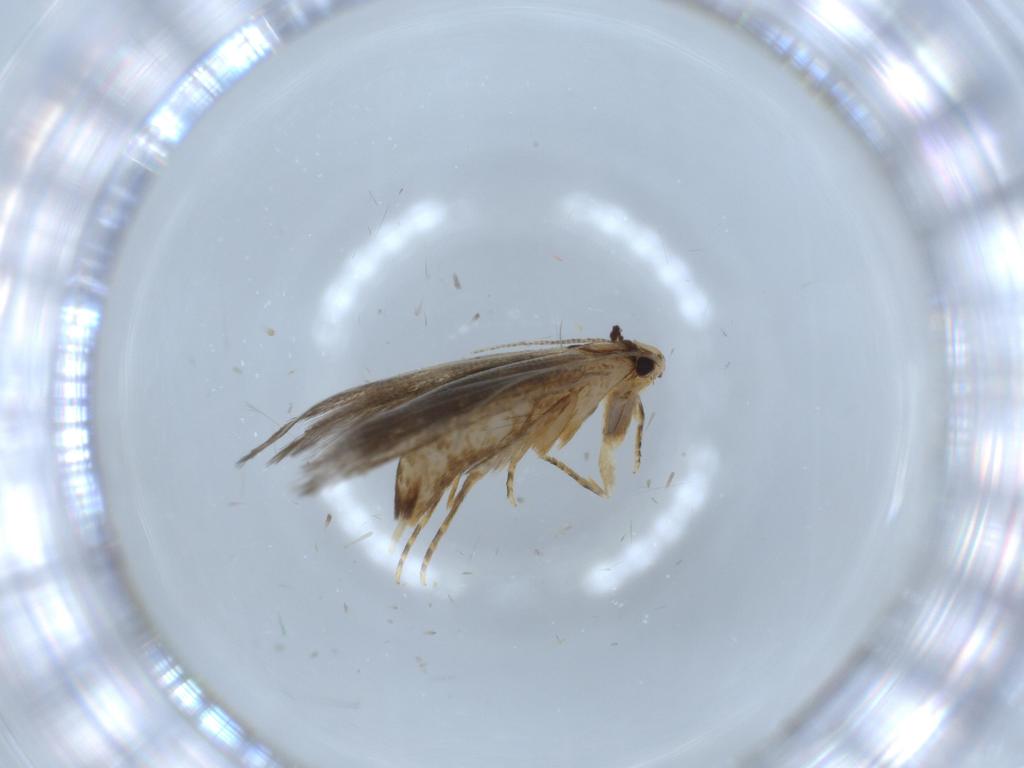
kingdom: Animalia
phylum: Arthropoda
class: Insecta
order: Lepidoptera
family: Tineidae
